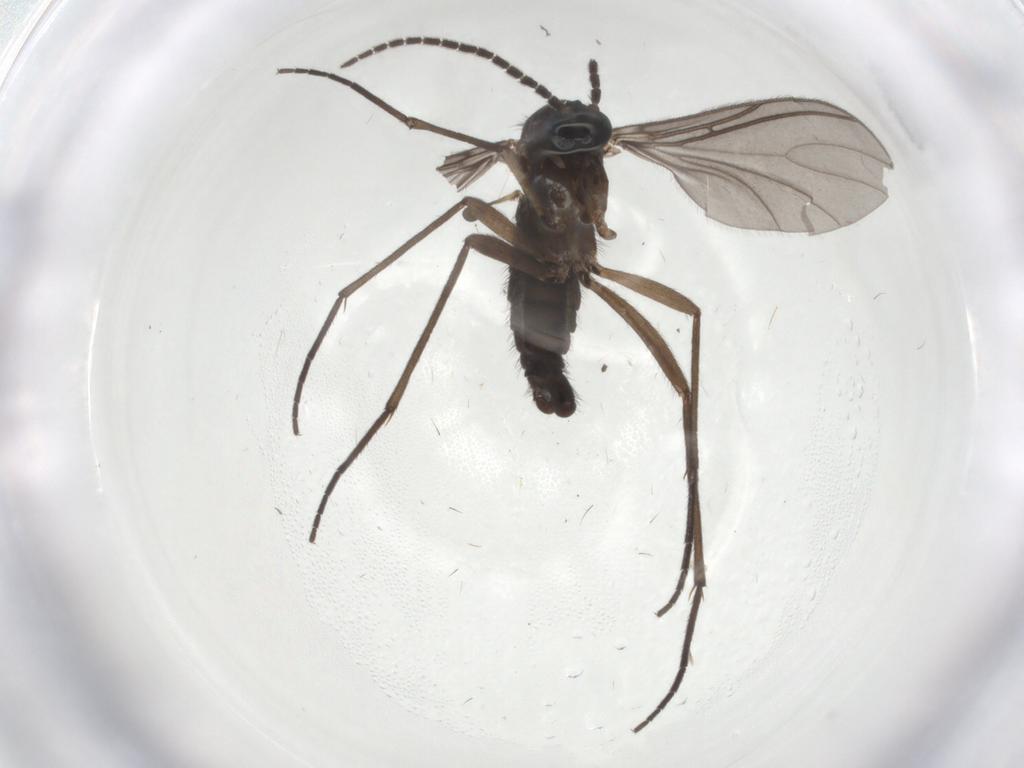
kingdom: Animalia
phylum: Arthropoda
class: Insecta
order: Diptera
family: Sciaridae
